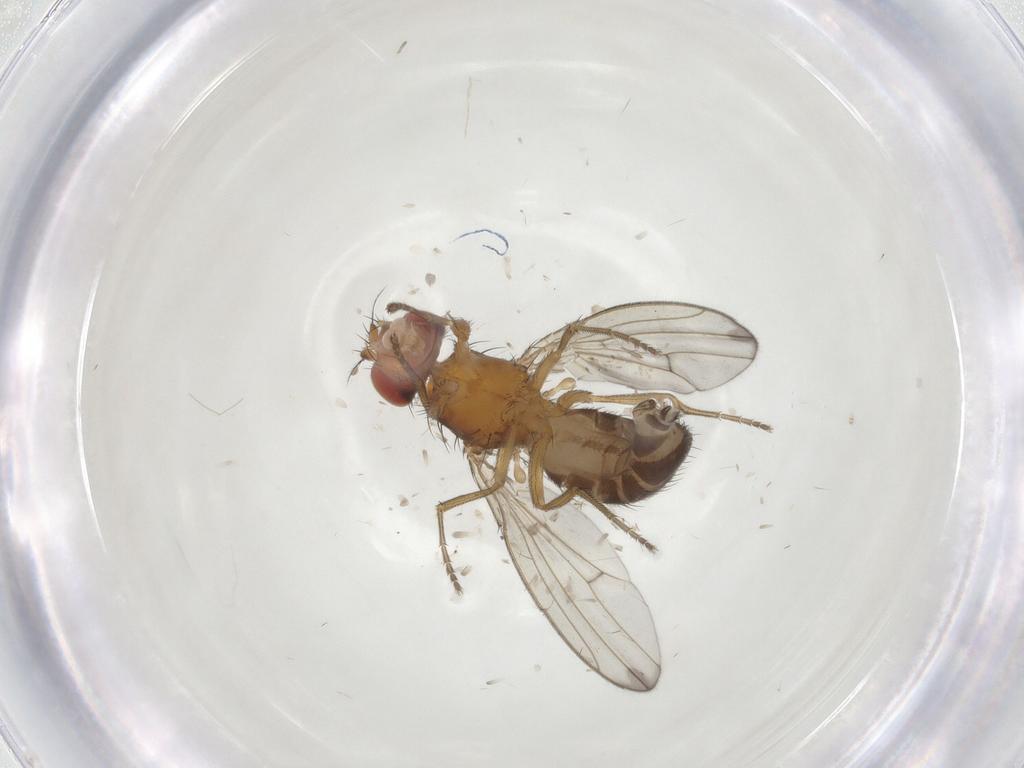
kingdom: Animalia
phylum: Arthropoda
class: Insecta
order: Diptera
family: Drosophilidae
